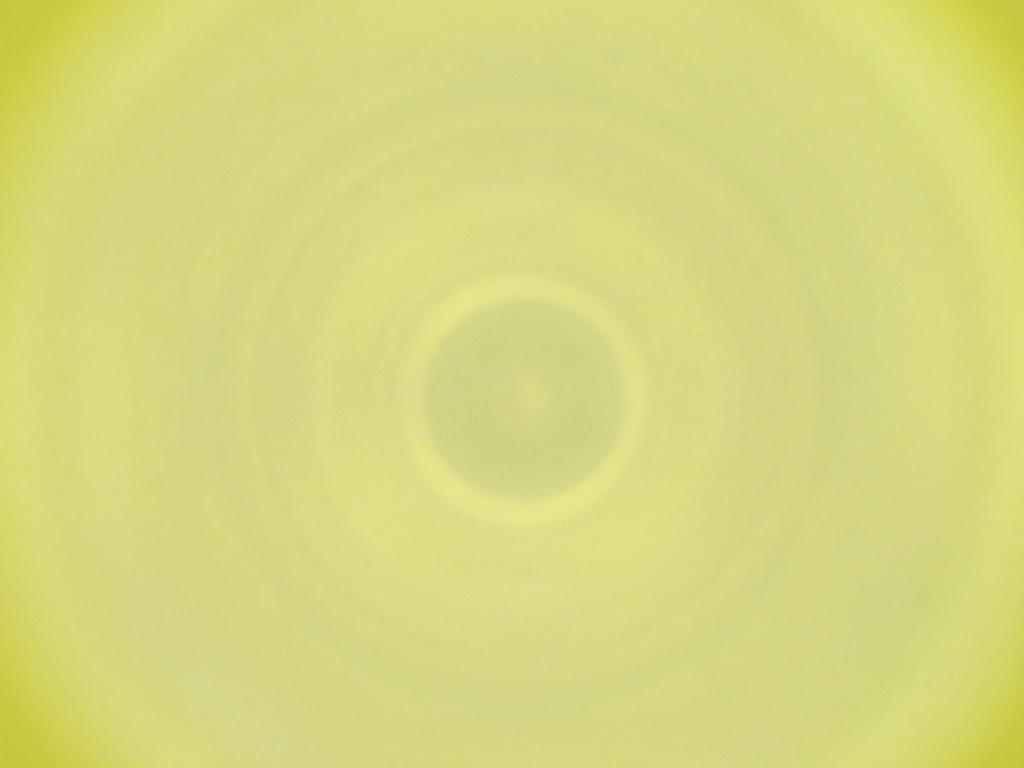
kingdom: Animalia
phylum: Arthropoda
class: Insecta
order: Diptera
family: Cecidomyiidae
